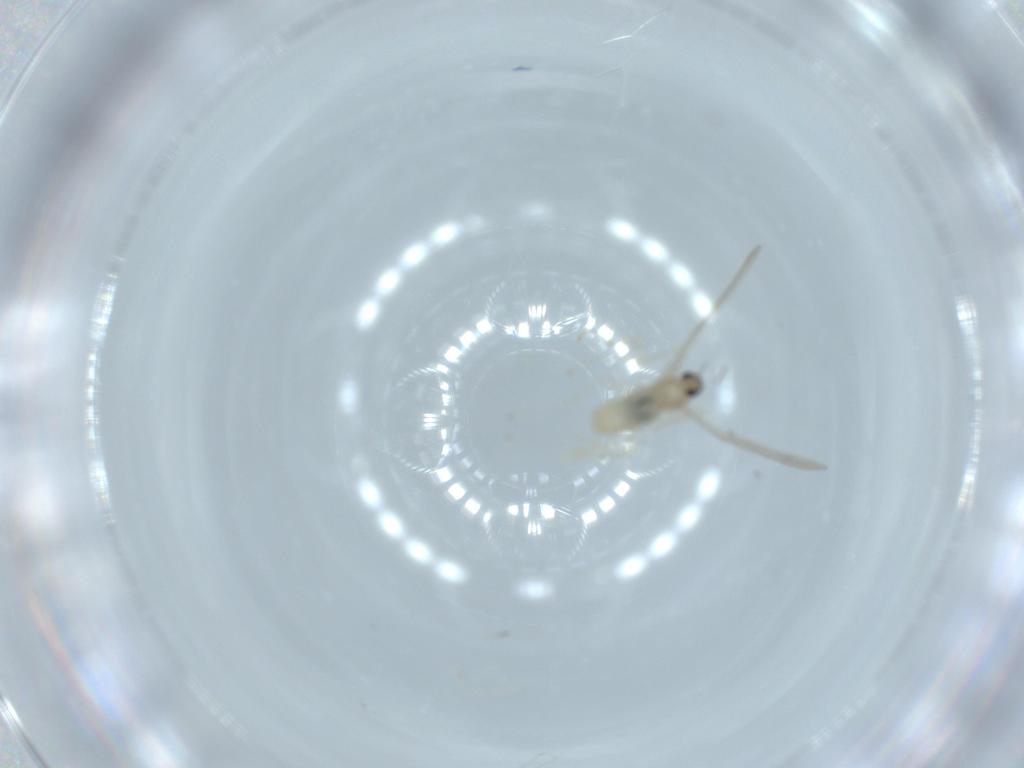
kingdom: Animalia
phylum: Arthropoda
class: Insecta
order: Diptera
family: Cecidomyiidae
